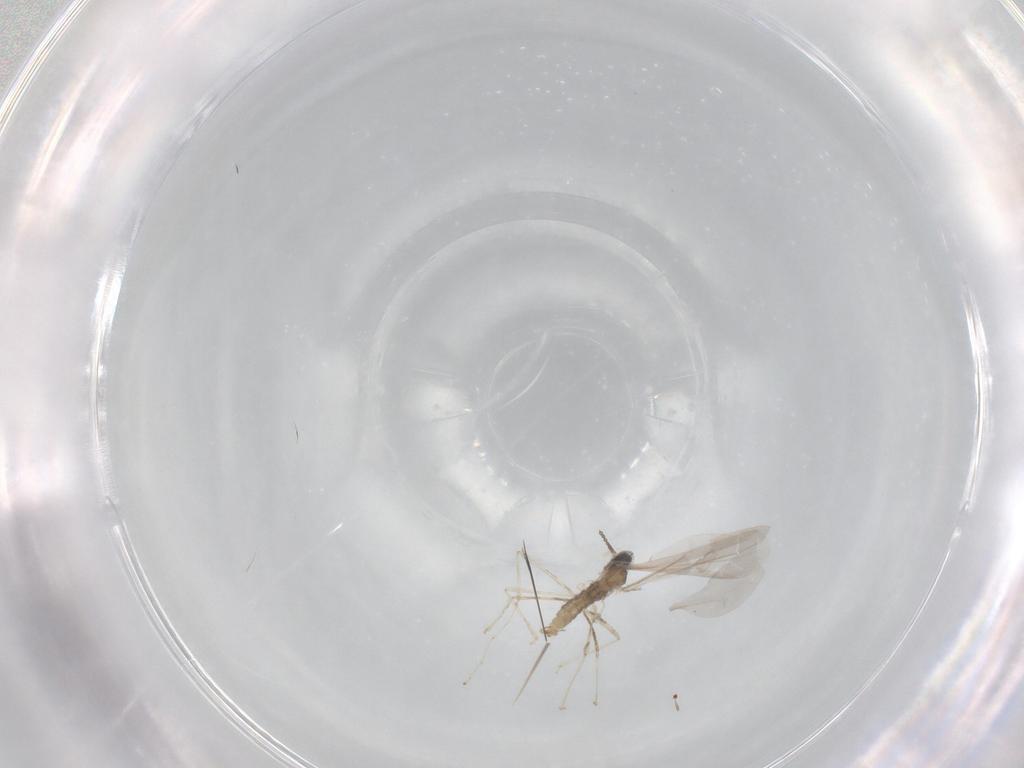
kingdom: Animalia
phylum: Arthropoda
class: Insecta
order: Diptera
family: Cecidomyiidae
